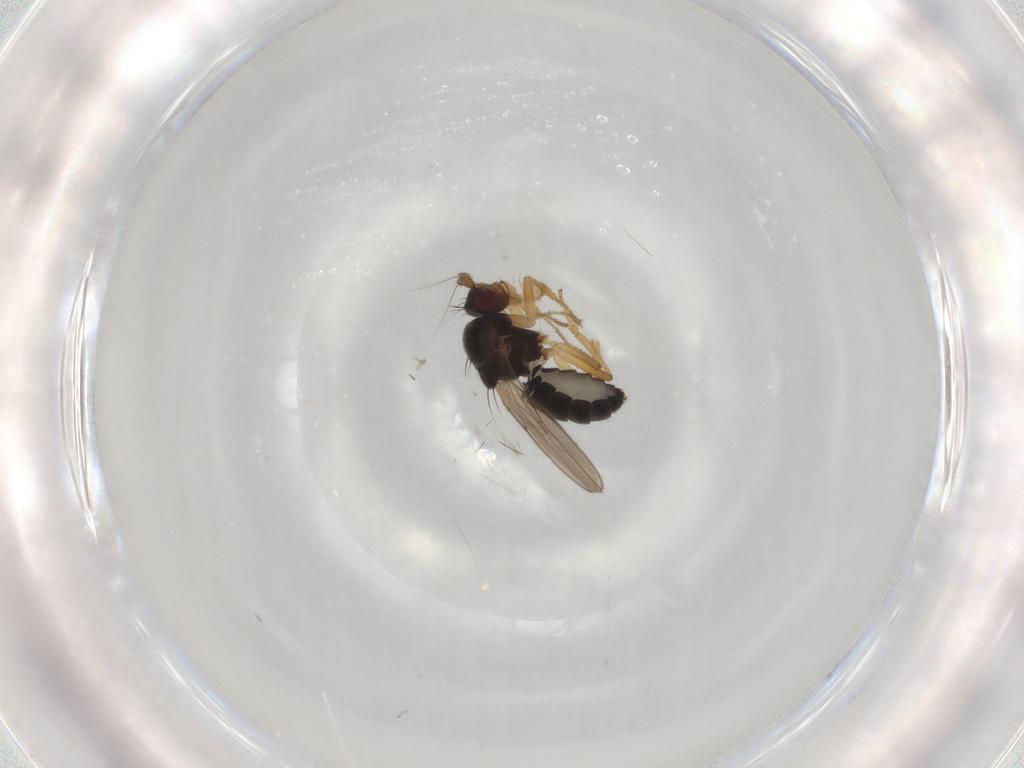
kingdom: Animalia
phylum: Arthropoda
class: Insecta
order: Diptera
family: Sphaeroceridae
